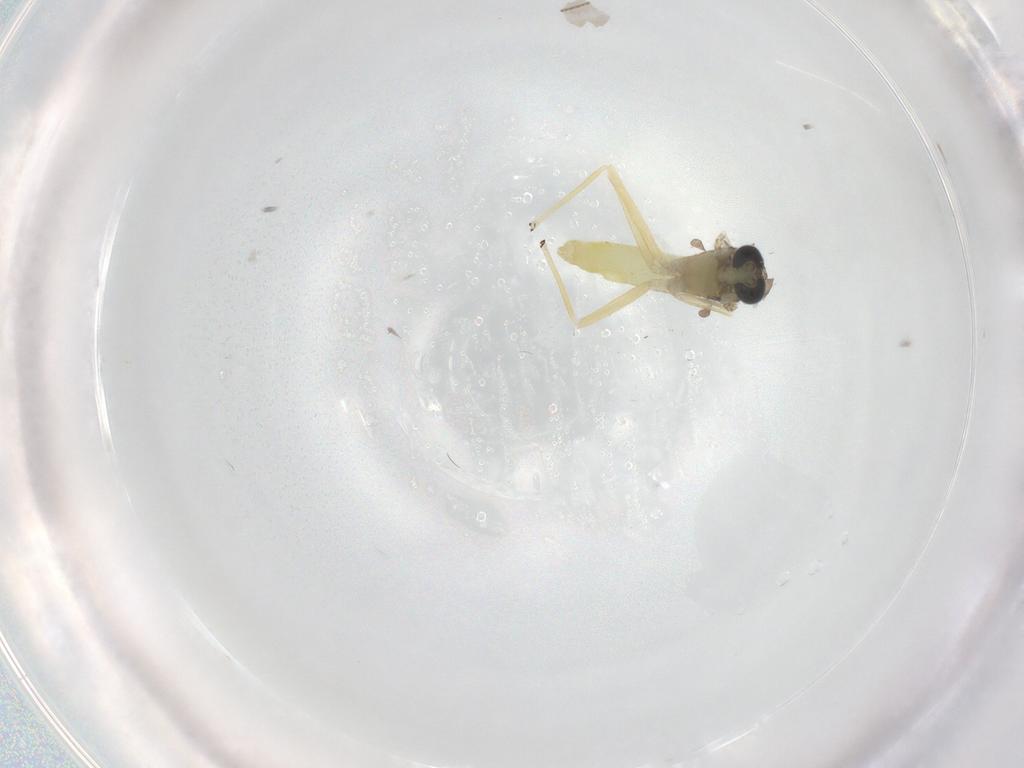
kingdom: Animalia
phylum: Arthropoda
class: Insecta
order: Diptera
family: Chironomidae
